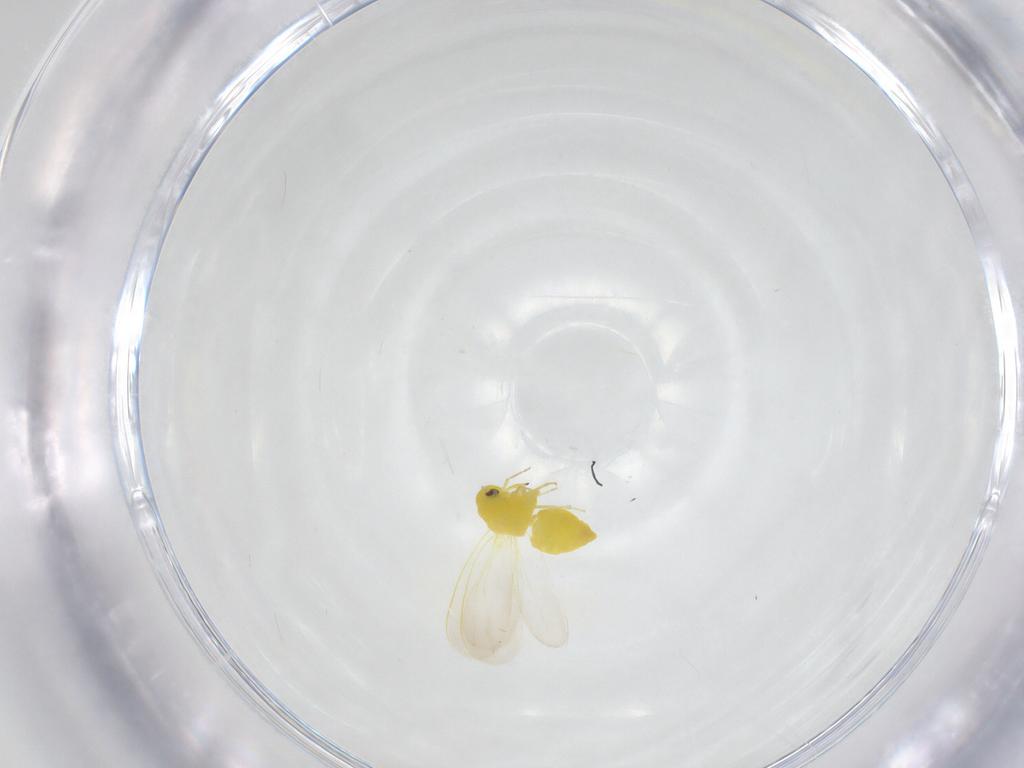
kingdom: Animalia
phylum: Arthropoda
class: Insecta
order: Hemiptera
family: Aleyrodidae
